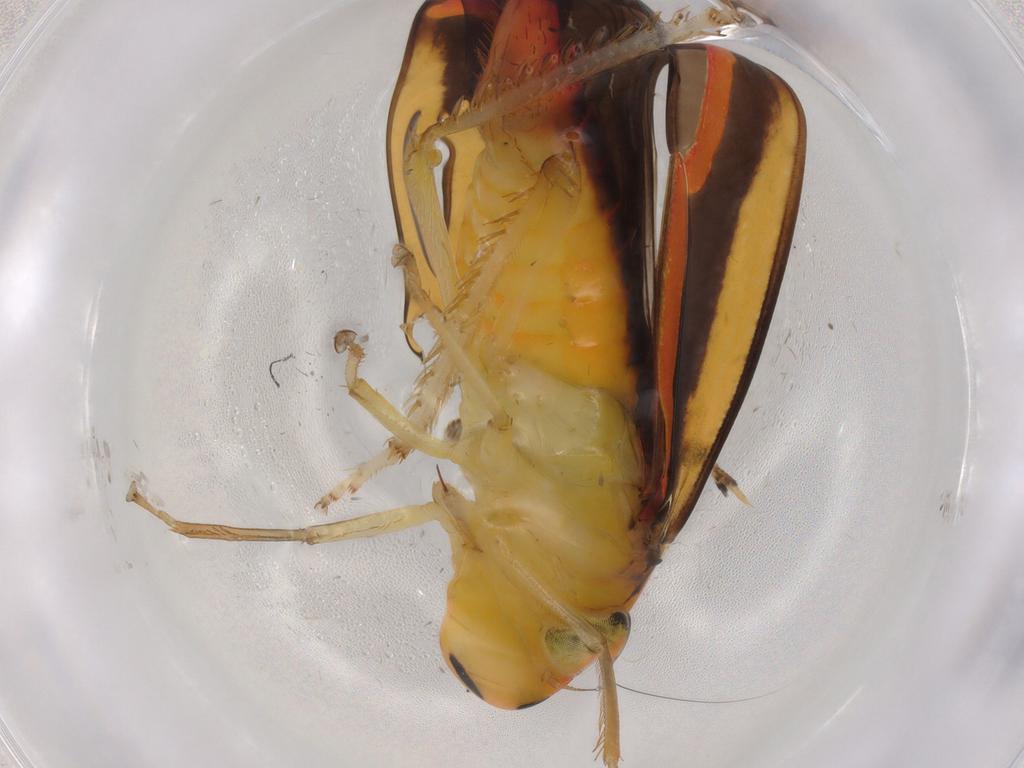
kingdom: Animalia
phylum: Arthropoda
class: Insecta
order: Hemiptera
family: Cicadellidae
